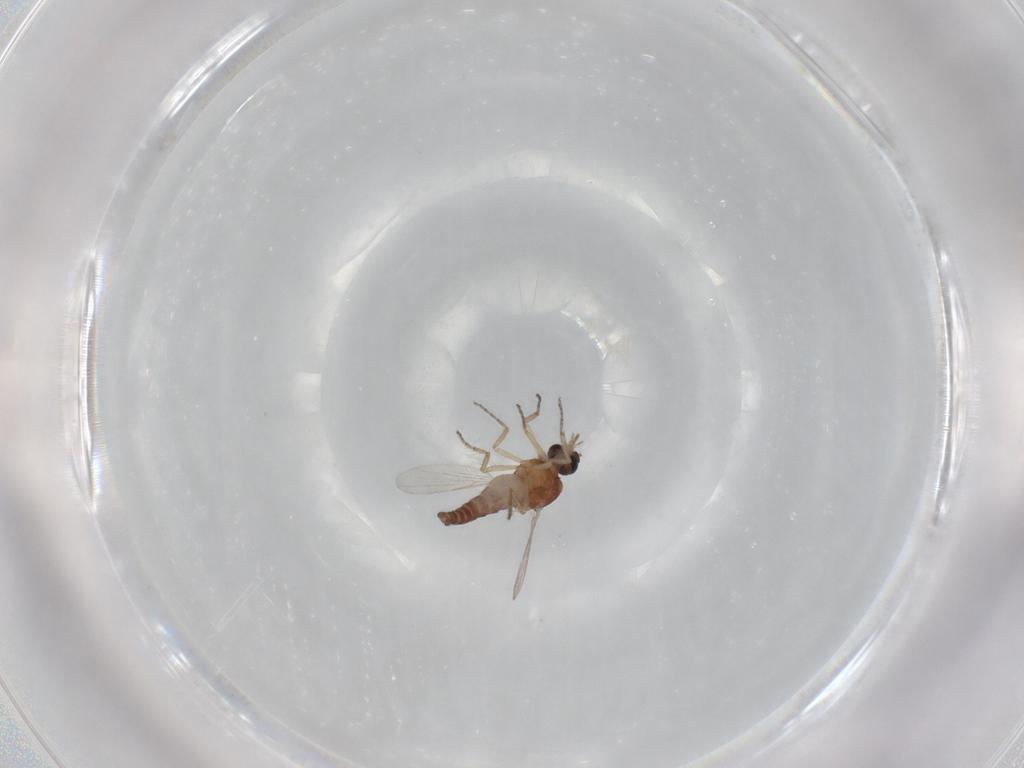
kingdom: Animalia
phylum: Arthropoda
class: Insecta
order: Diptera
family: Ceratopogonidae
